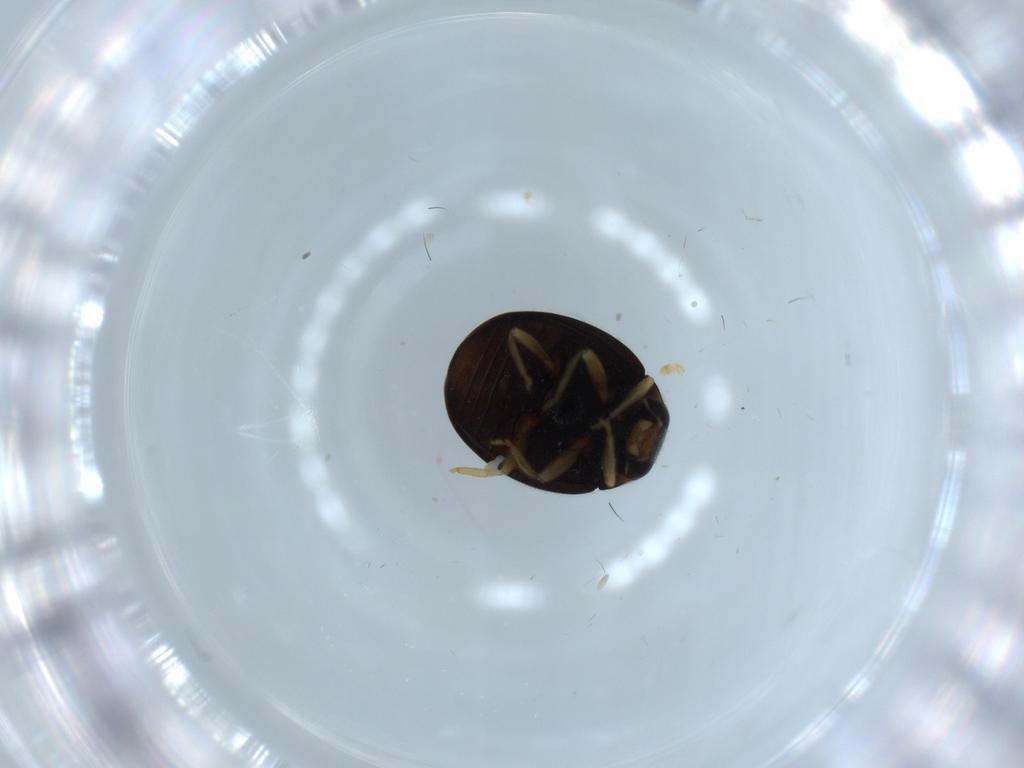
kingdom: Animalia
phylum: Arthropoda
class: Insecta
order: Coleoptera
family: Coccinellidae
